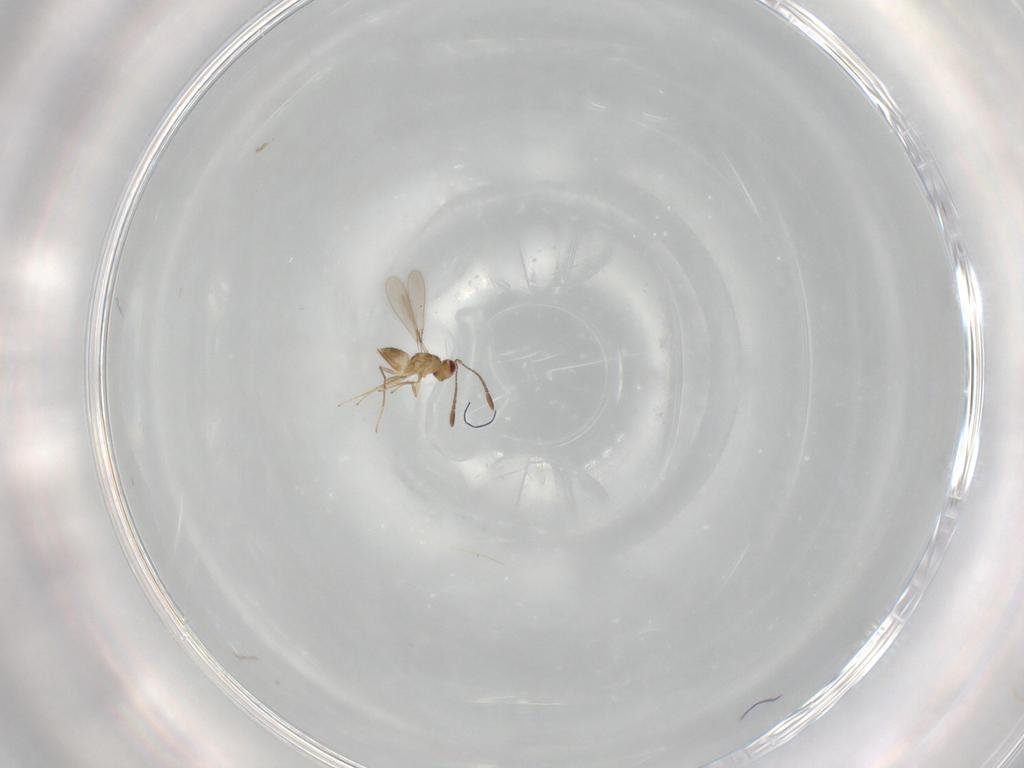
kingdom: Animalia
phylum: Arthropoda
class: Insecta
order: Hymenoptera
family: Mymaridae
